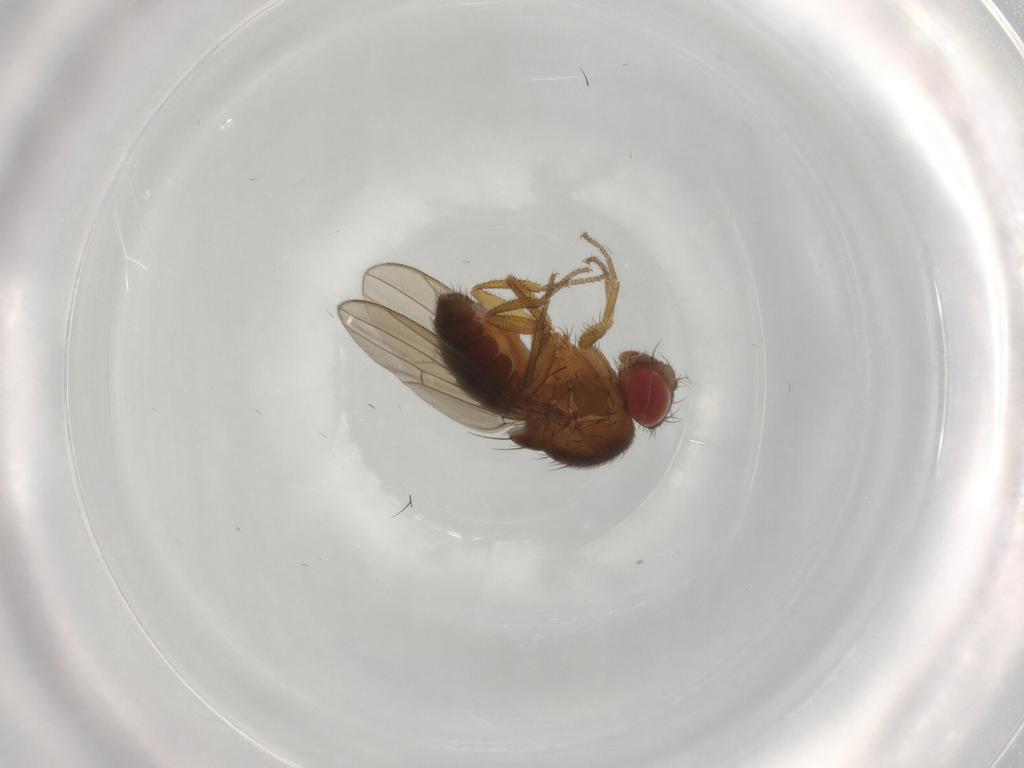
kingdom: Animalia
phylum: Arthropoda
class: Insecta
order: Diptera
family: Drosophilidae
